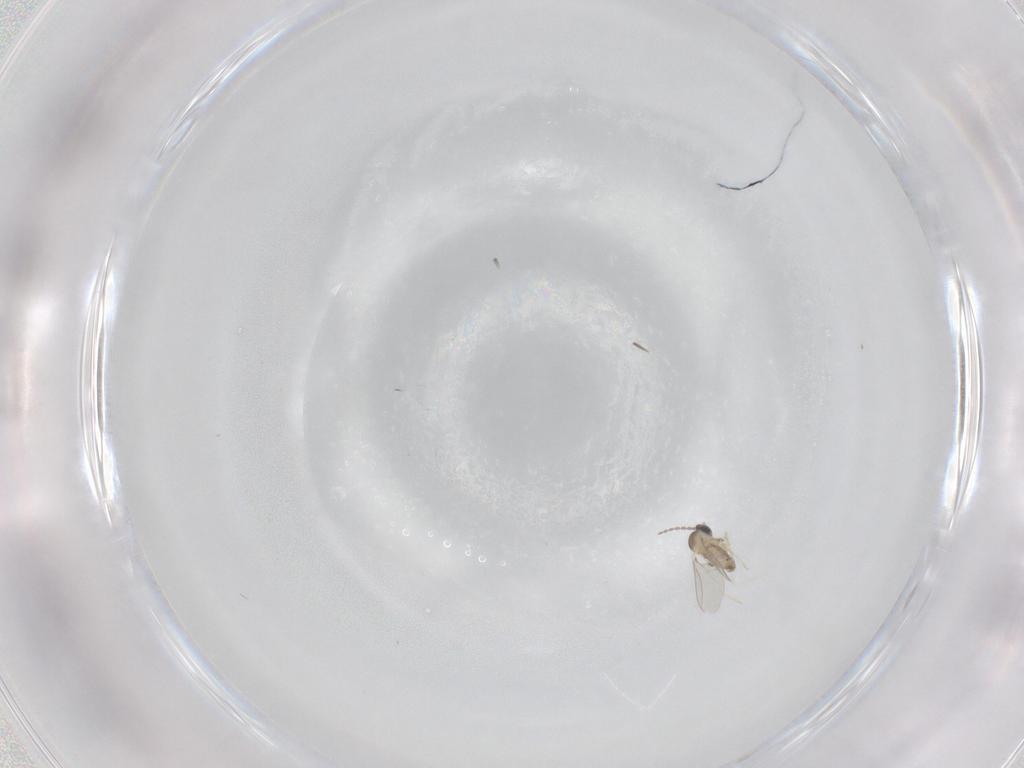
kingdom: Animalia
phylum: Arthropoda
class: Insecta
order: Diptera
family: Cecidomyiidae
